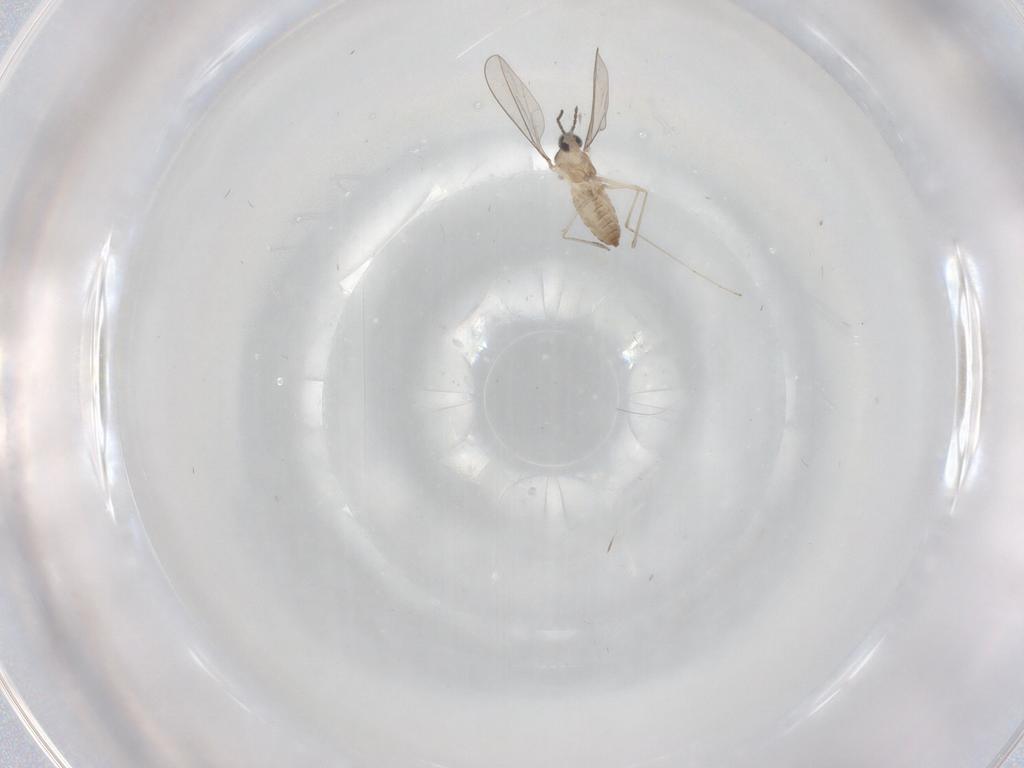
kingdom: Animalia
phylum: Arthropoda
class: Insecta
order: Diptera
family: Cecidomyiidae
